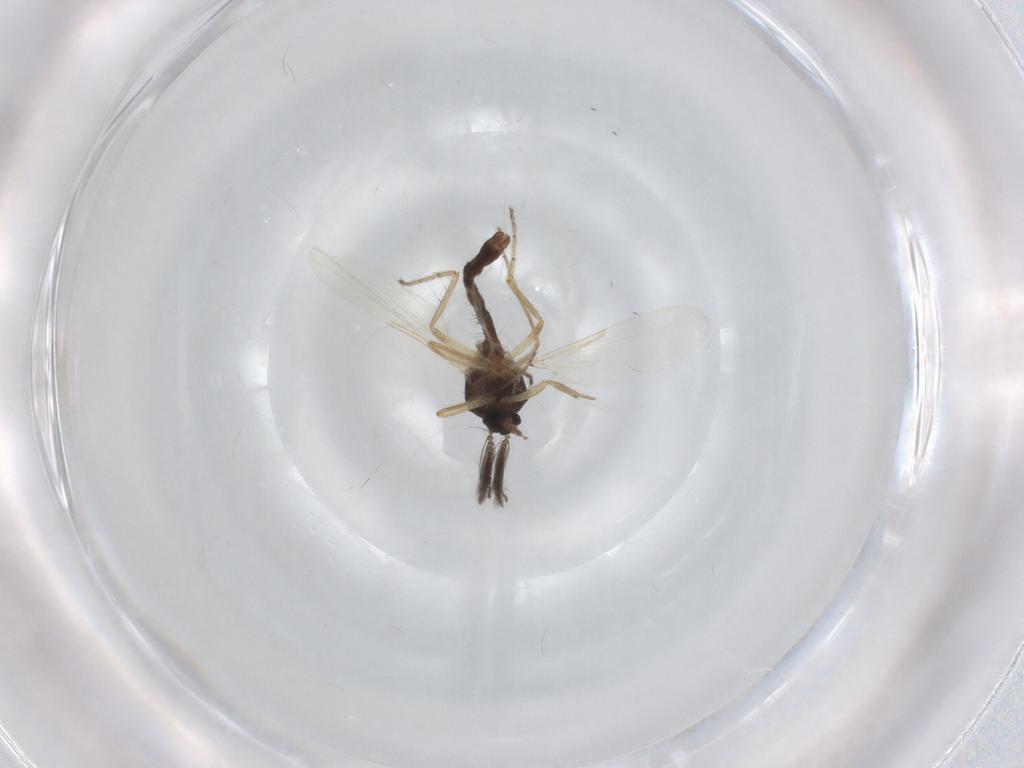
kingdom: Animalia
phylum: Arthropoda
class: Insecta
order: Diptera
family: Ceratopogonidae
